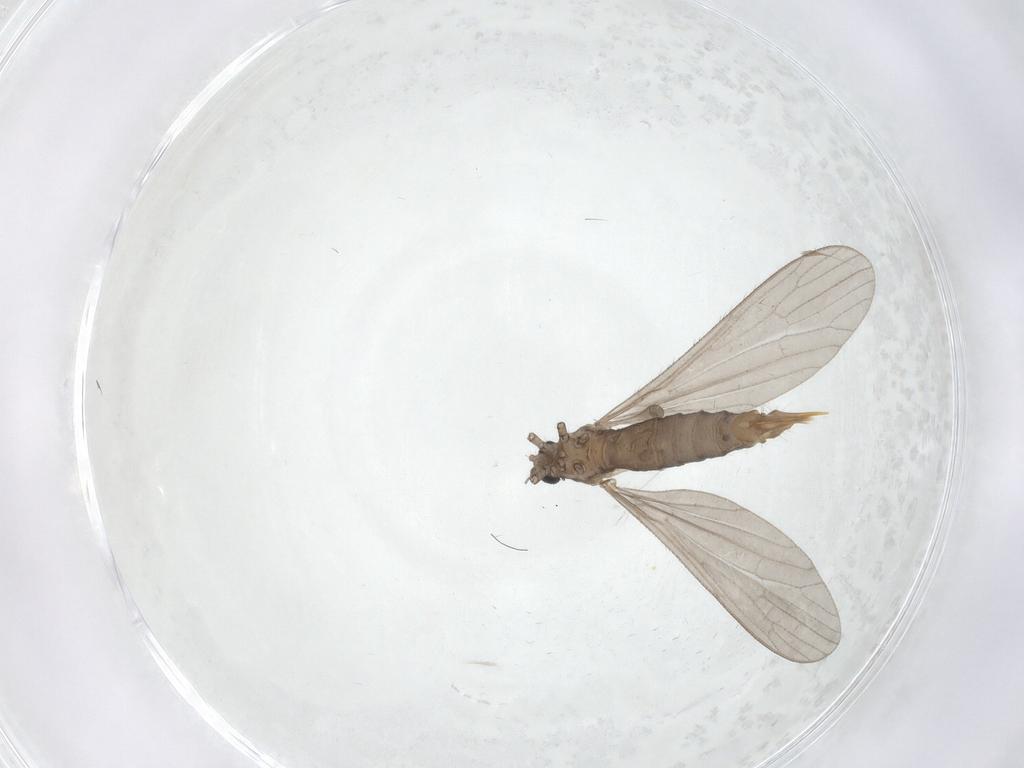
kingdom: Animalia
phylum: Arthropoda
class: Insecta
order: Diptera
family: Limoniidae
